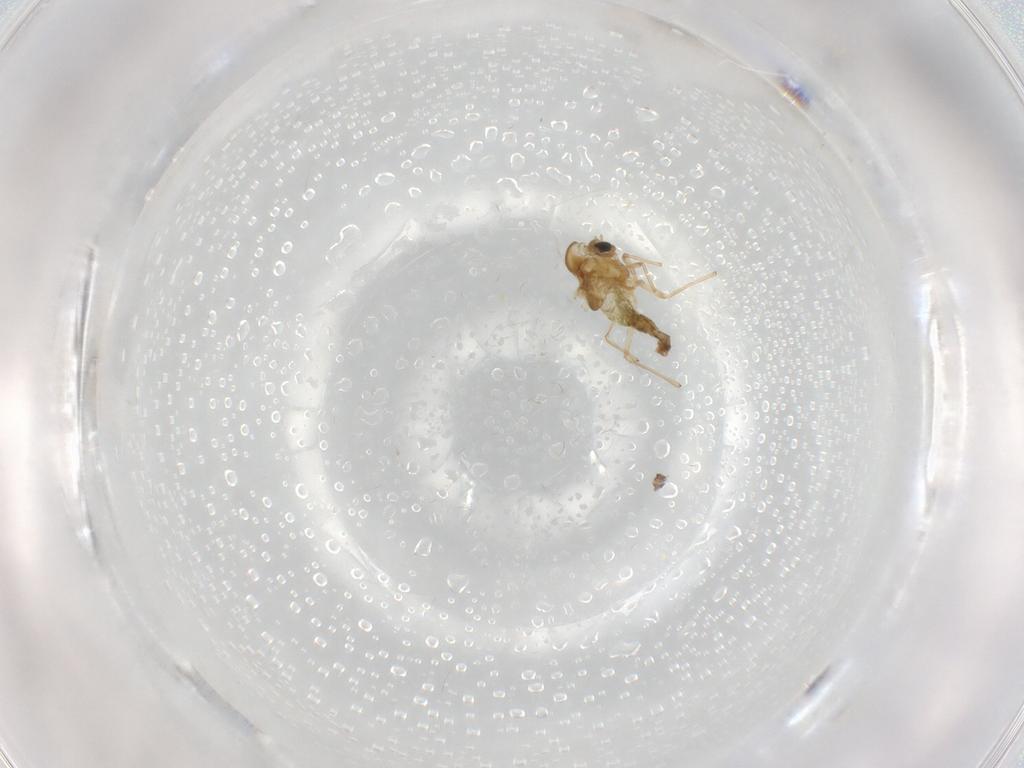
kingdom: Animalia
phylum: Arthropoda
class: Insecta
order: Diptera
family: Chironomidae
